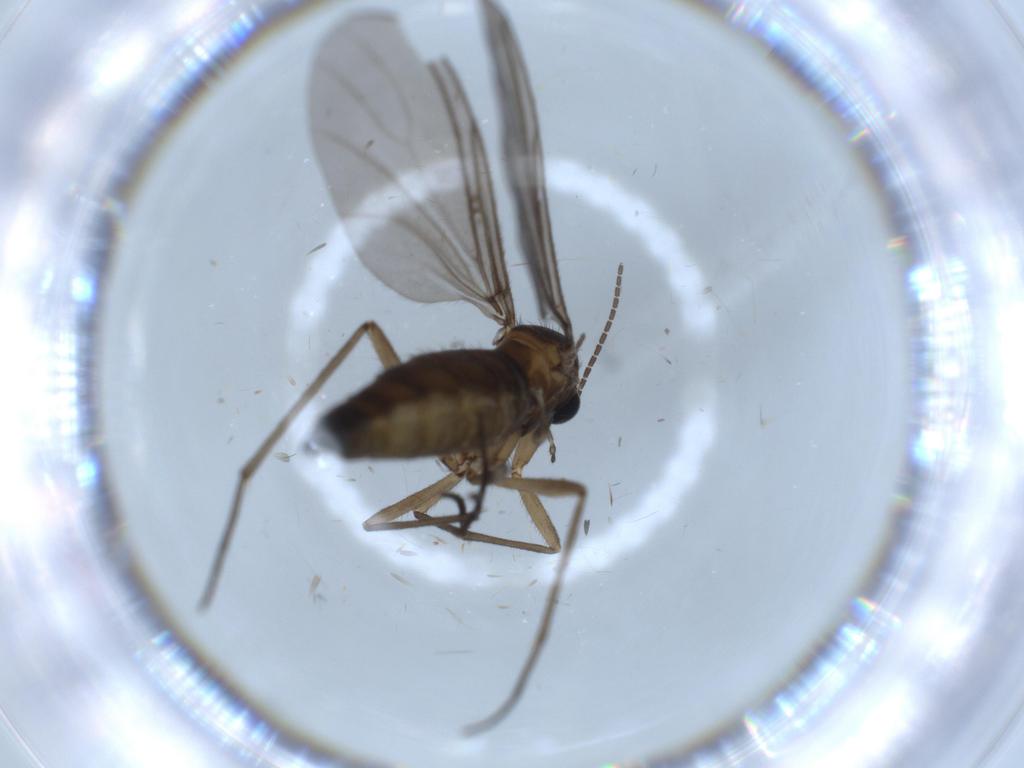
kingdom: Animalia
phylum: Arthropoda
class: Insecta
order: Diptera
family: Sciaridae
